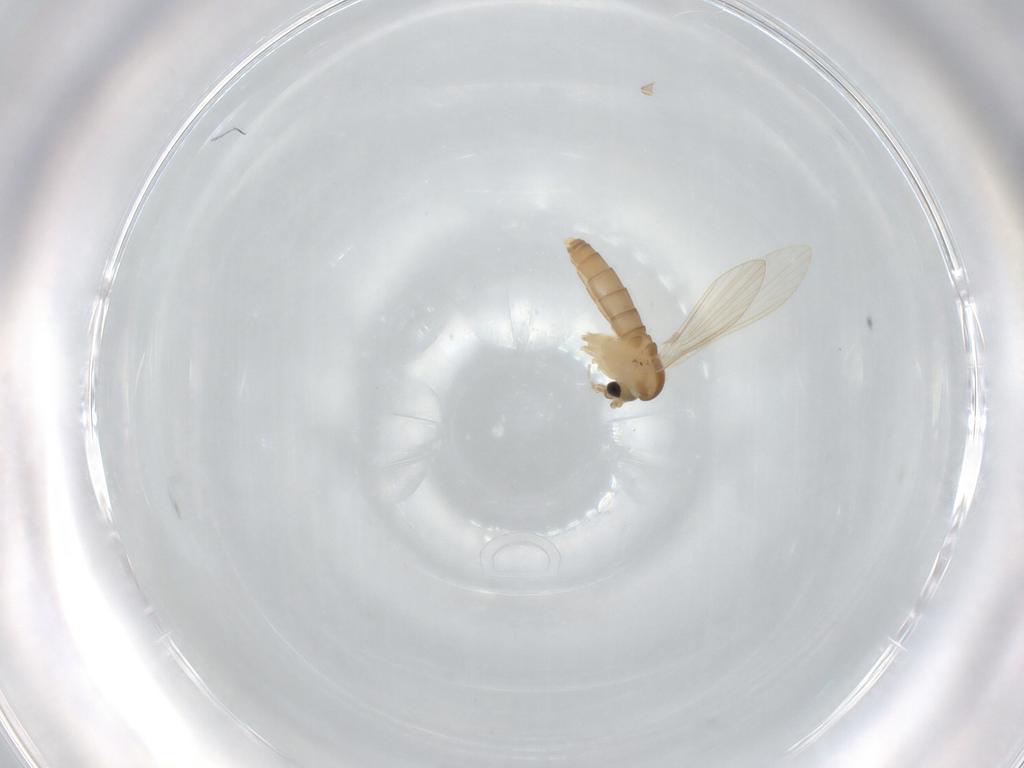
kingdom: Animalia
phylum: Arthropoda
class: Insecta
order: Diptera
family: Psychodidae
